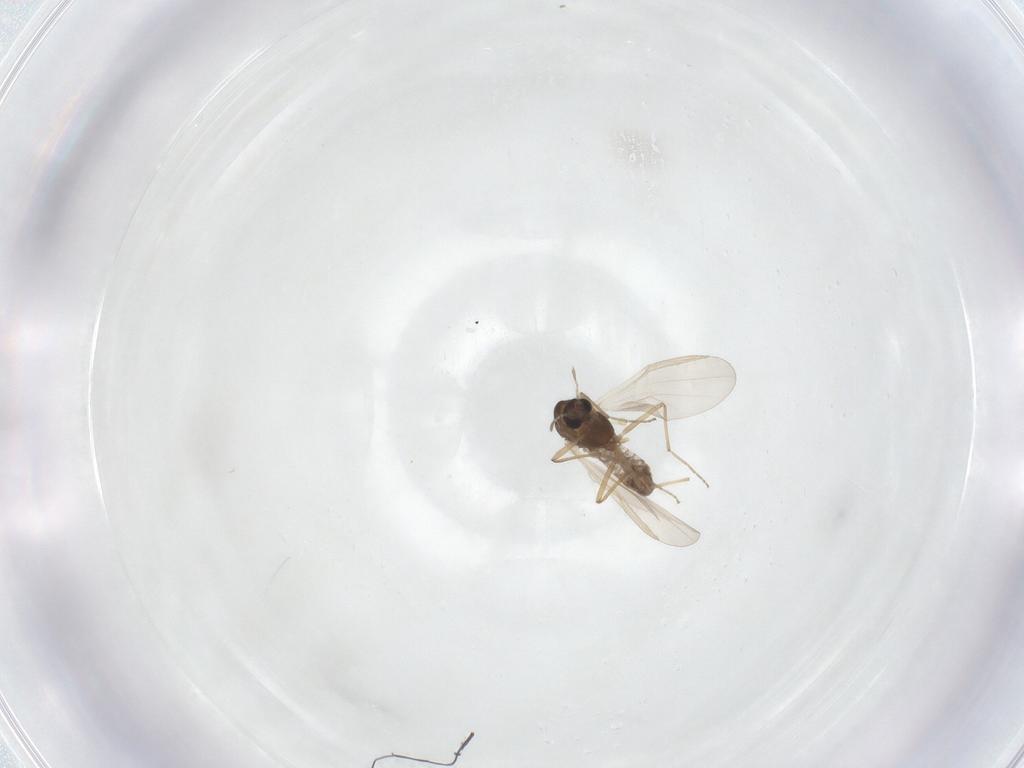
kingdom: Animalia
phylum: Arthropoda
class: Insecta
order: Diptera
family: Chironomidae
